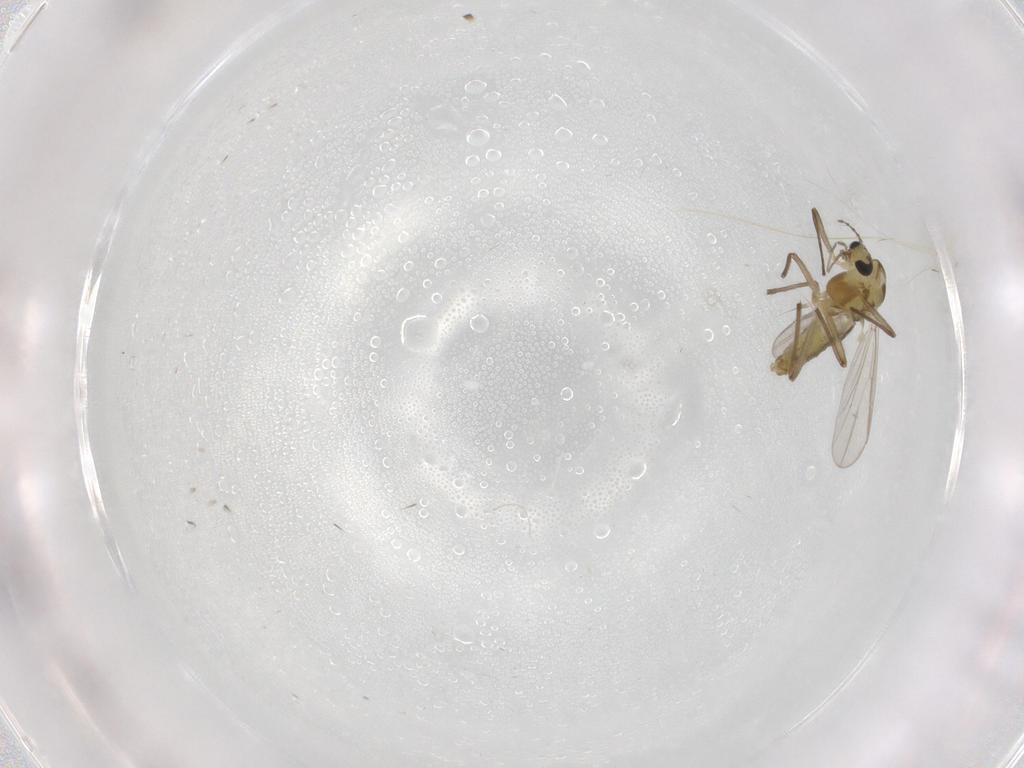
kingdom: Animalia
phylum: Arthropoda
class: Insecta
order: Diptera
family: Chironomidae
